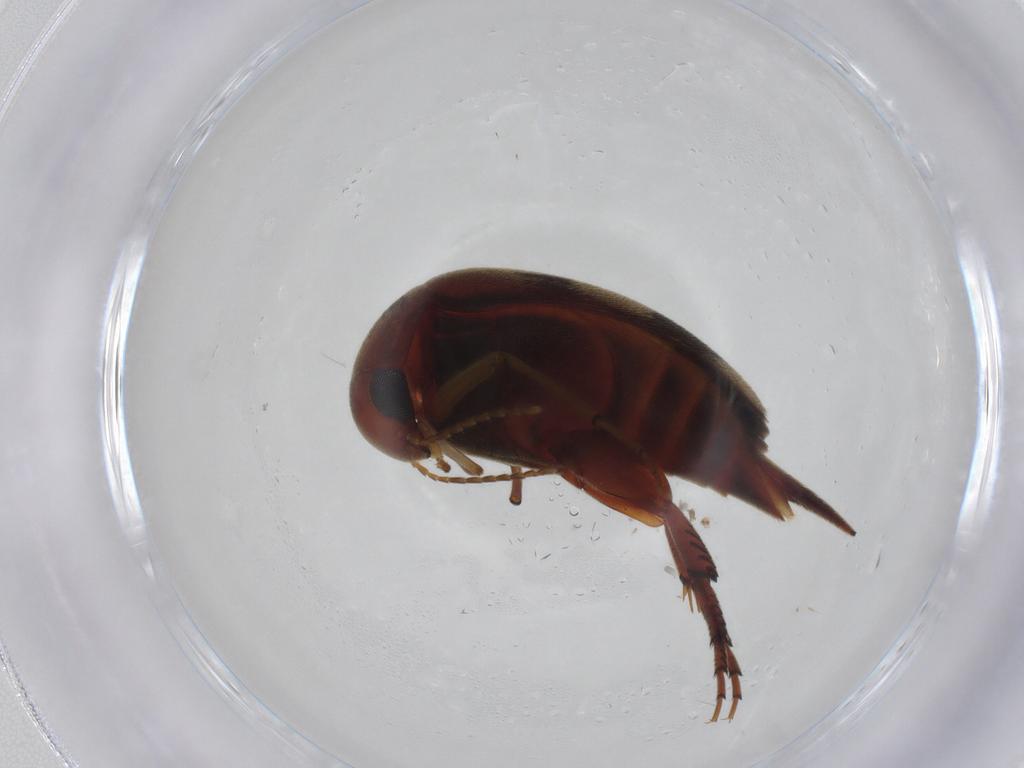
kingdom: Animalia
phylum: Arthropoda
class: Insecta
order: Coleoptera
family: Mordellidae
